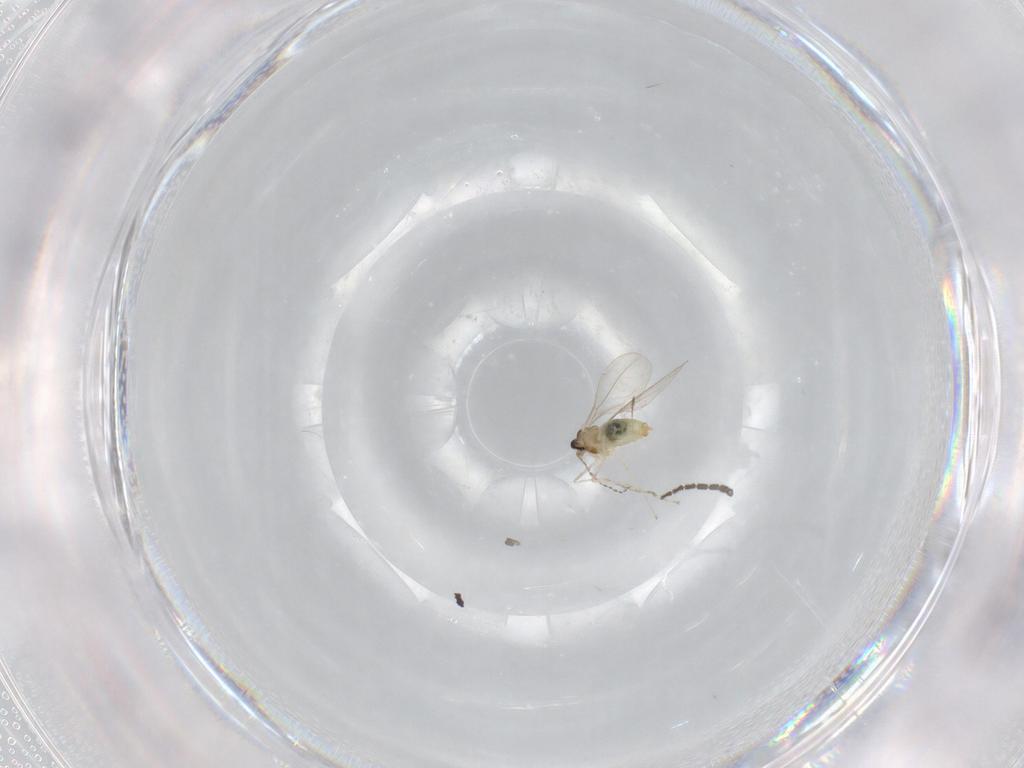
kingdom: Animalia
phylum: Arthropoda
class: Insecta
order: Diptera
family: Sciaridae
